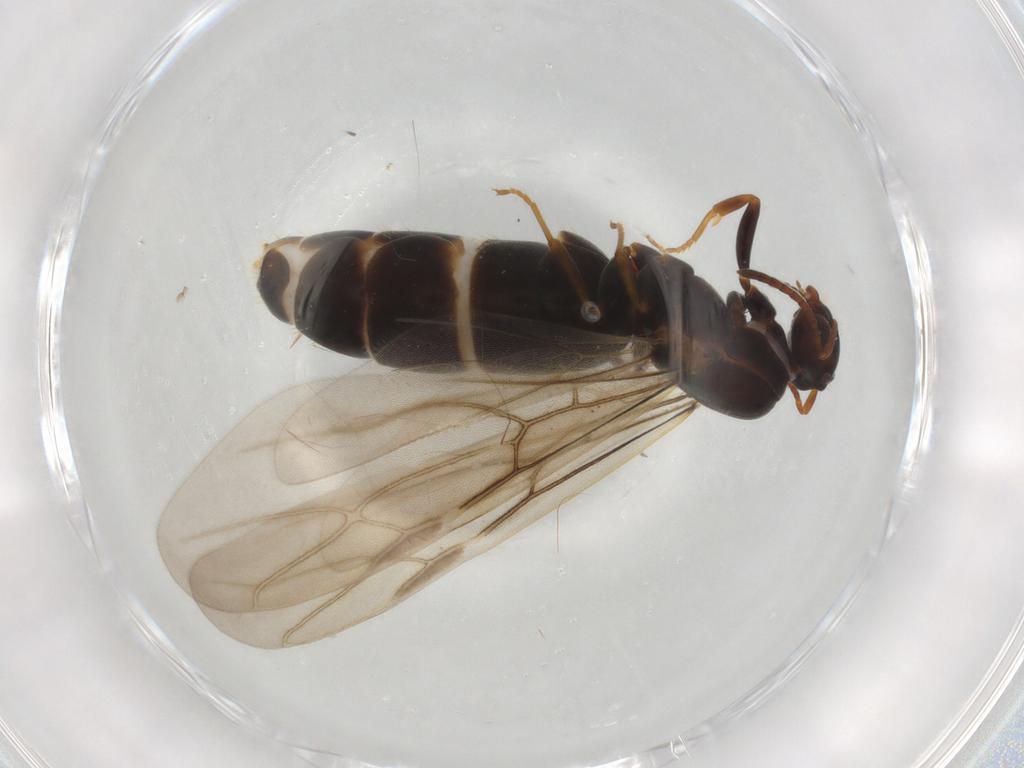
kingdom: Animalia
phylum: Arthropoda
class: Insecta
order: Hymenoptera
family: Formicidae
